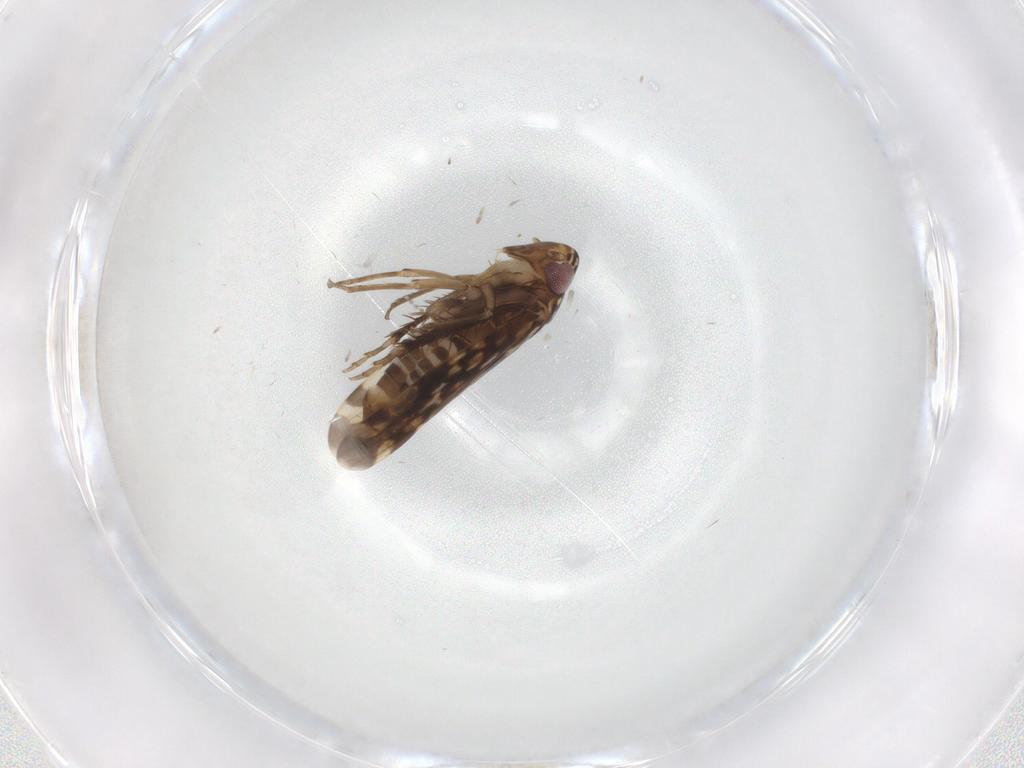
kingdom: Animalia
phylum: Arthropoda
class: Insecta
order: Hemiptera
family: Cicadellidae
